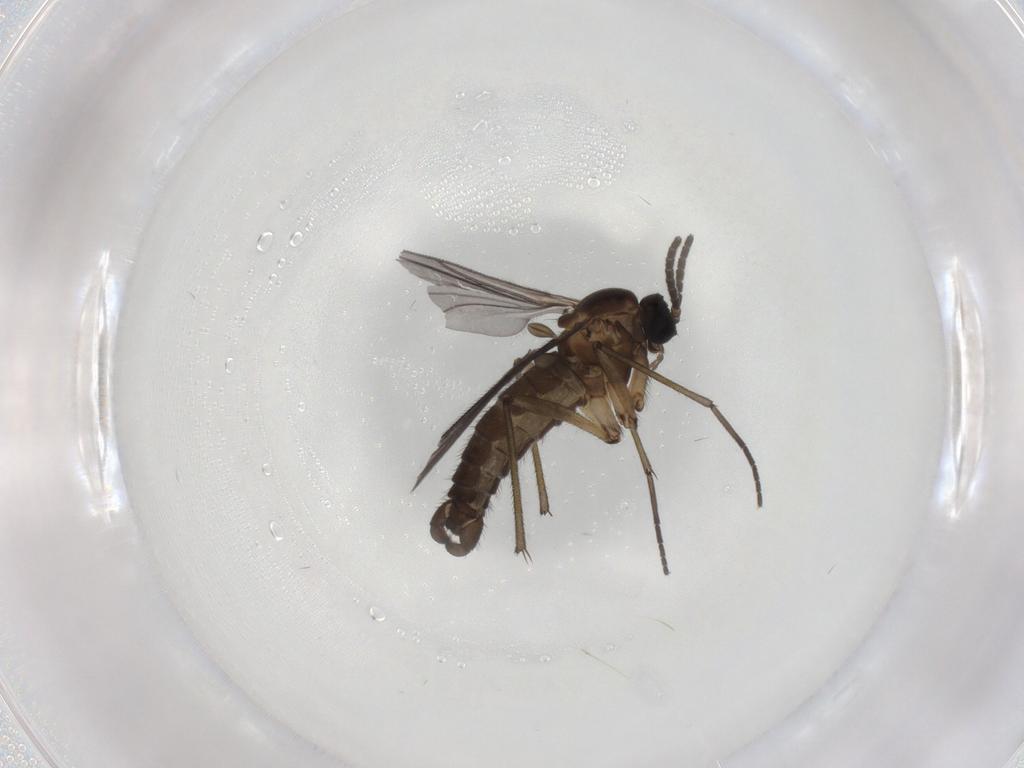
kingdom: Animalia
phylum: Arthropoda
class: Insecta
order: Diptera
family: Sciaridae
